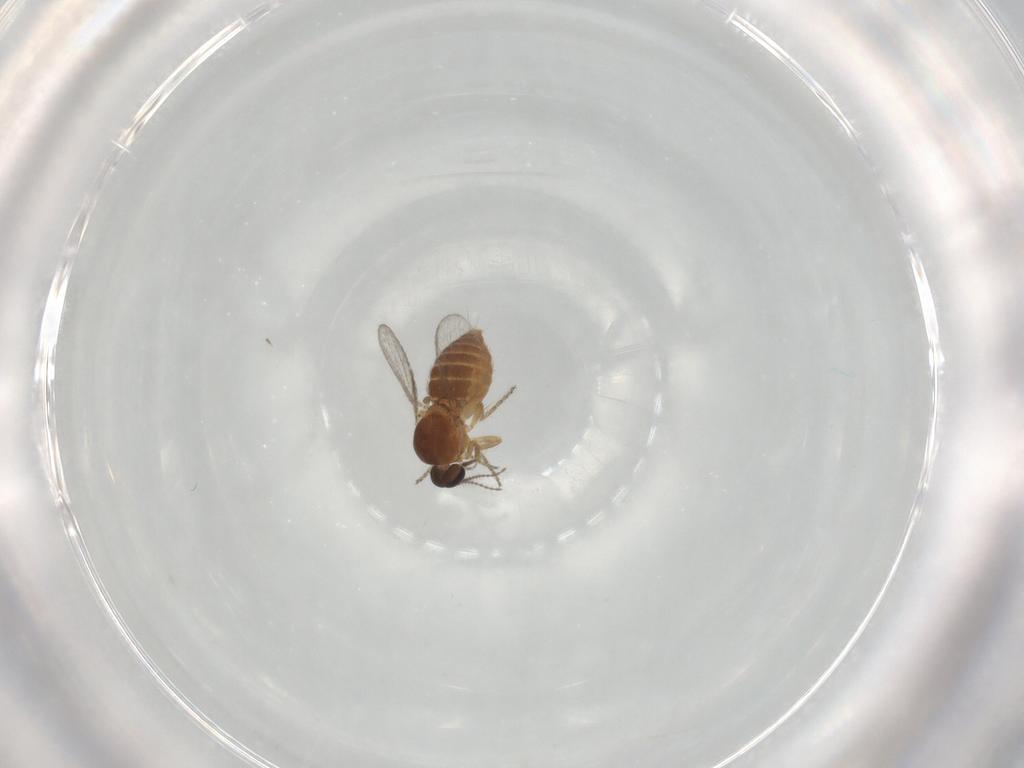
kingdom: Animalia
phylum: Arthropoda
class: Insecta
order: Diptera
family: Ceratopogonidae
